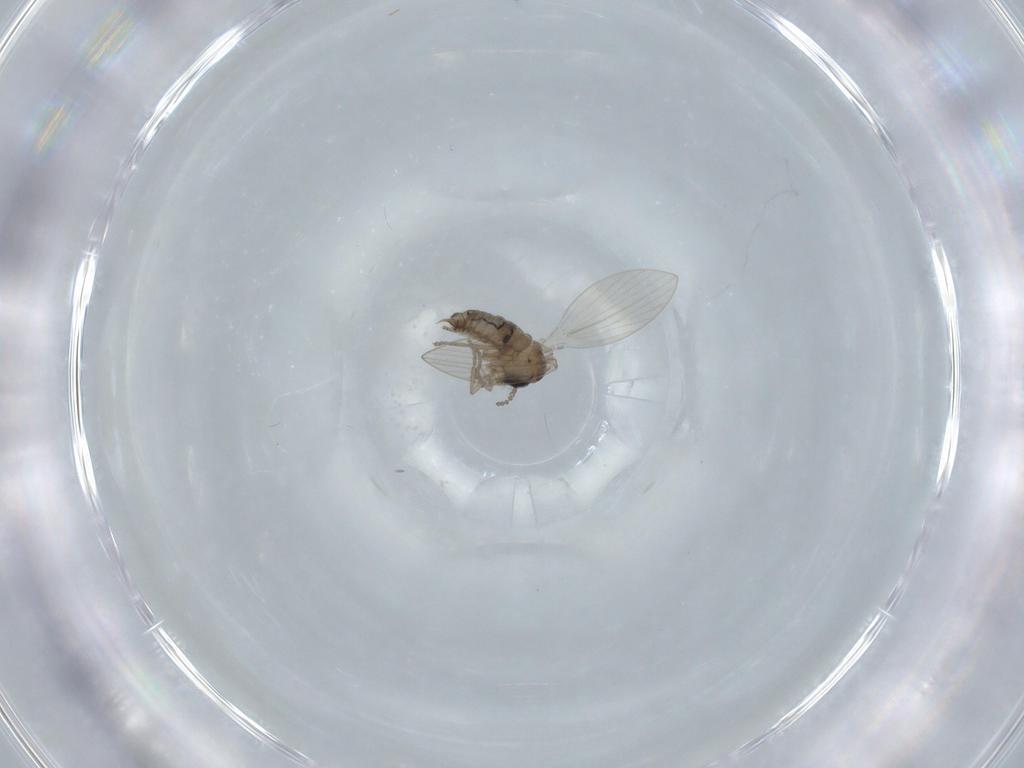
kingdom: Animalia
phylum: Arthropoda
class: Insecta
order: Diptera
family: Psychodidae
